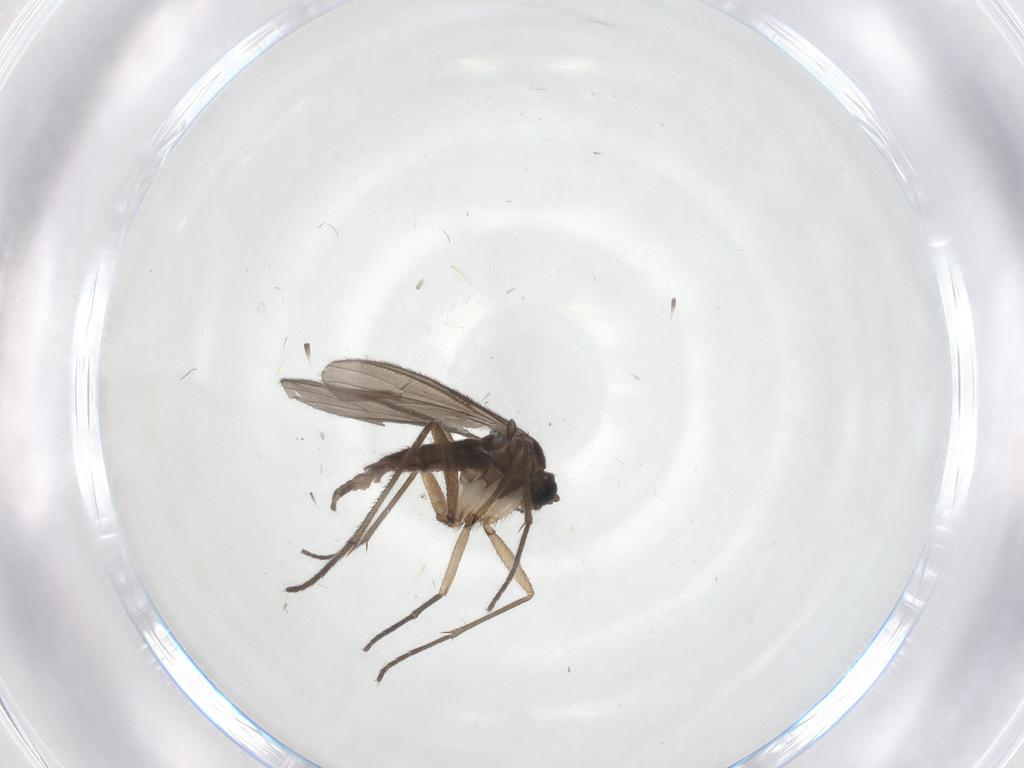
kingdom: Animalia
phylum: Arthropoda
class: Insecta
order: Diptera
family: Sciaridae
